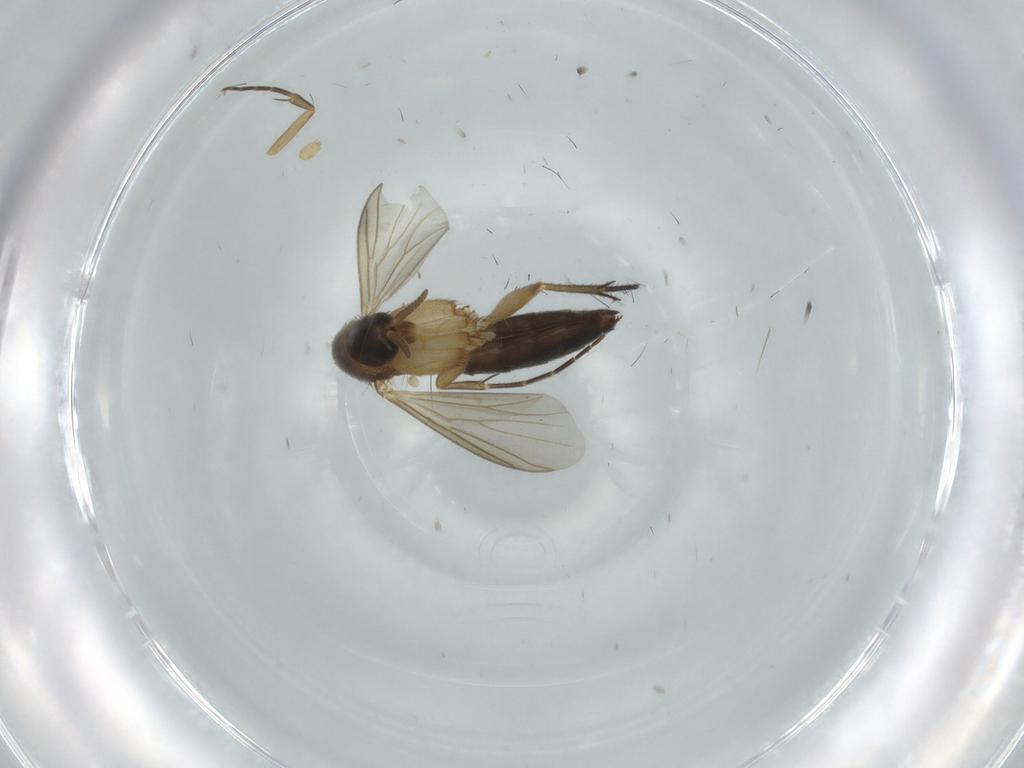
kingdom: Animalia
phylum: Arthropoda
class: Insecta
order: Diptera
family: Mycetophilidae
